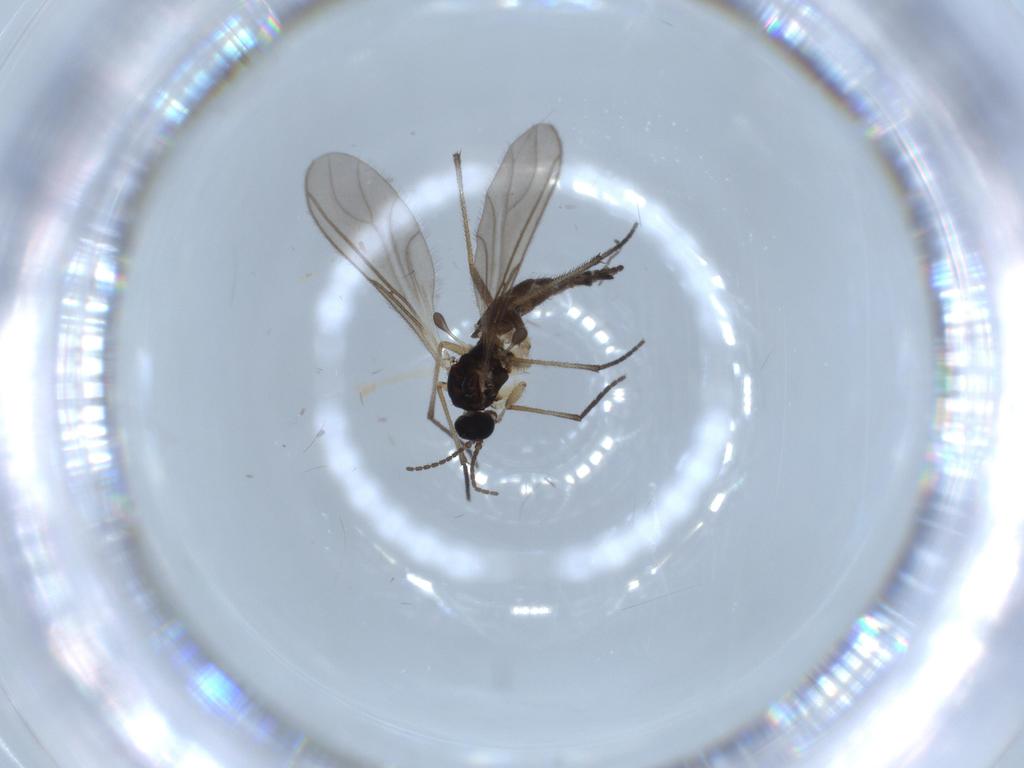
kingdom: Animalia
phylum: Arthropoda
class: Insecta
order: Diptera
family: Sciaridae
